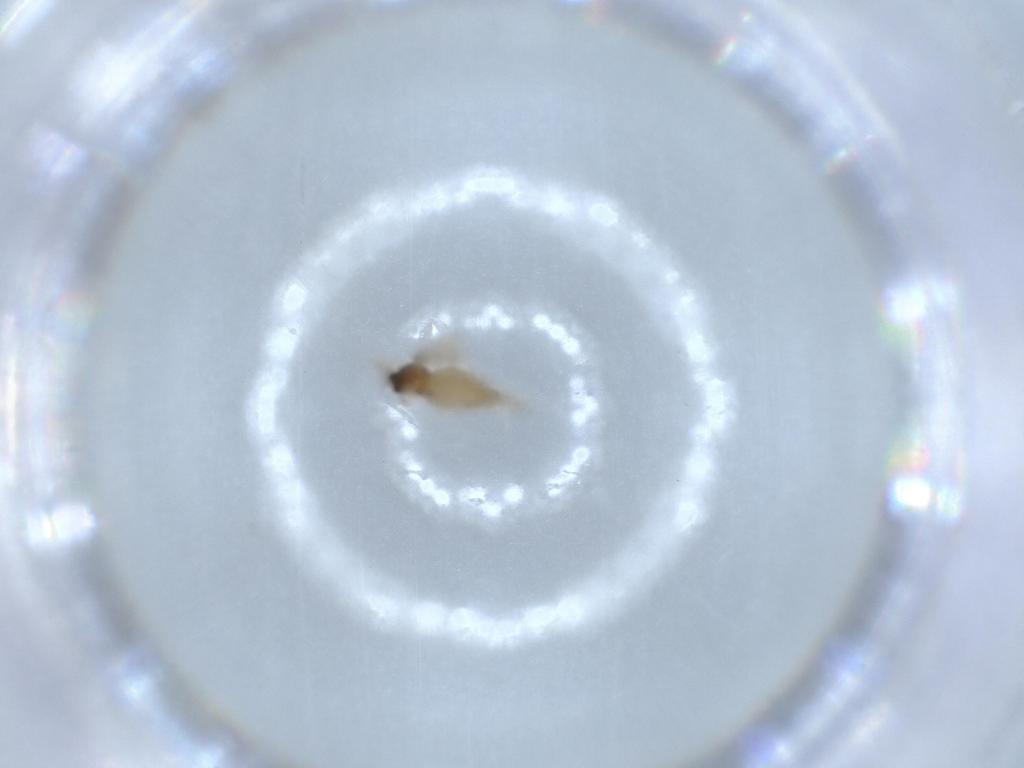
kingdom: Animalia
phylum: Arthropoda
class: Insecta
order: Diptera
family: Cecidomyiidae
